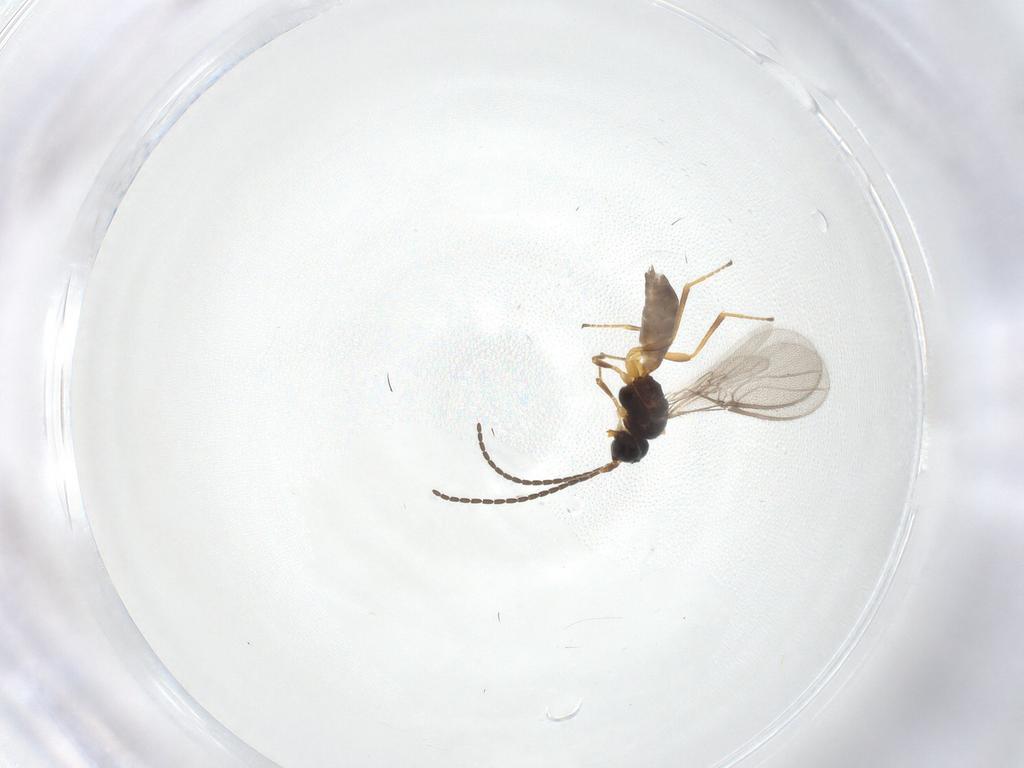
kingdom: Animalia
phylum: Arthropoda
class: Insecta
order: Hymenoptera
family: Braconidae
